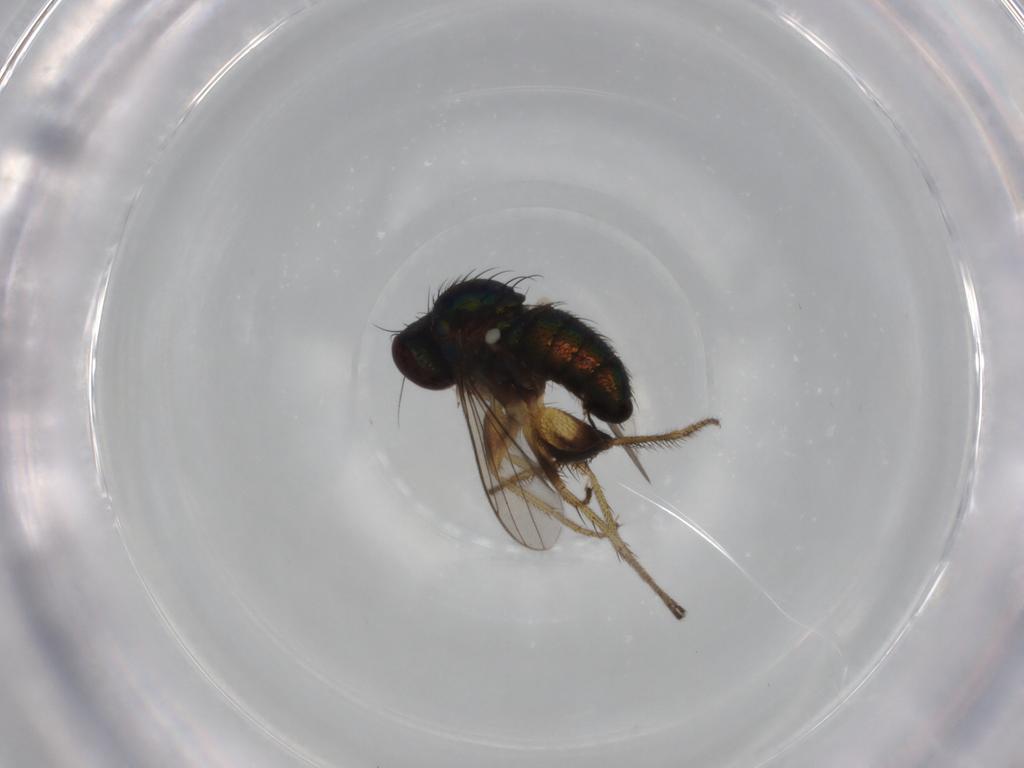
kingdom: Animalia
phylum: Arthropoda
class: Insecta
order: Diptera
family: Dolichopodidae
